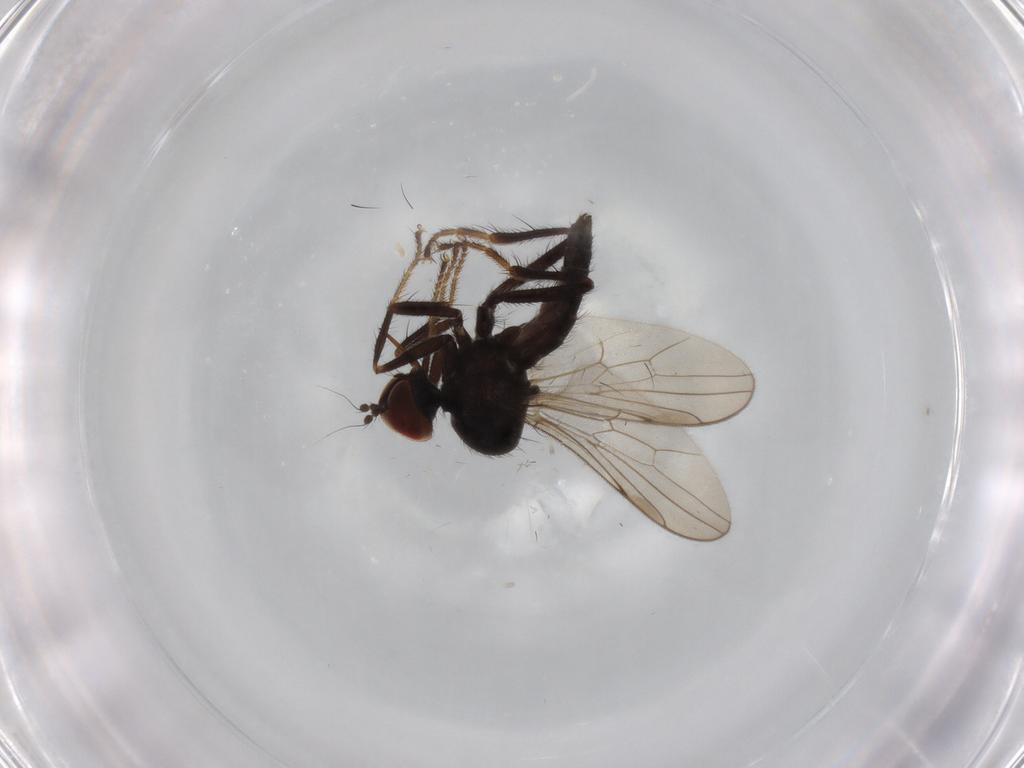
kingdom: Animalia
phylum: Arthropoda
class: Insecta
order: Diptera
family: Hybotidae
